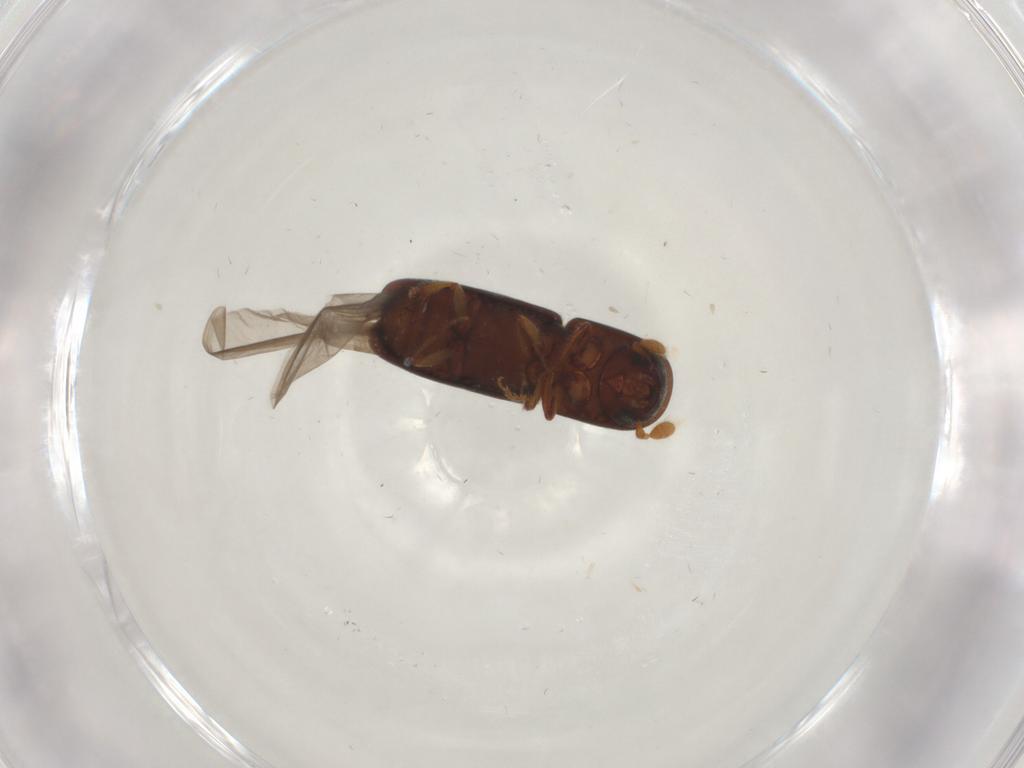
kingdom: Animalia
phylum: Arthropoda
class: Insecta
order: Coleoptera
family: Curculionidae
